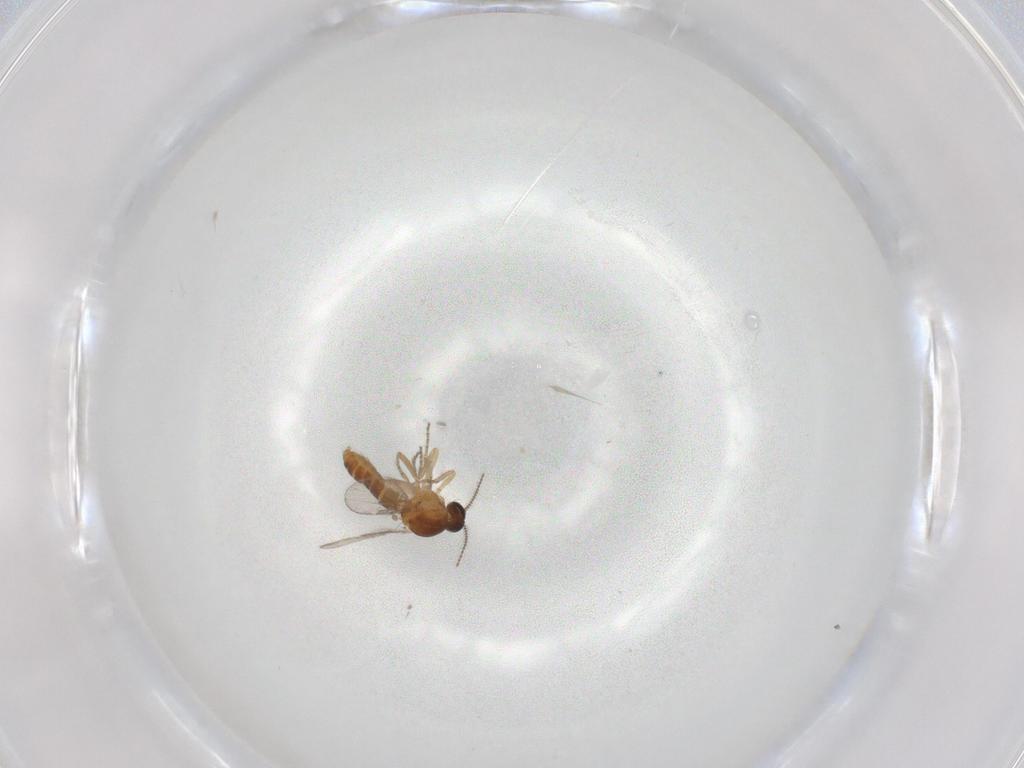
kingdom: Animalia
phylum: Arthropoda
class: Insecta
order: Diptera
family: Ceratopogonidae
